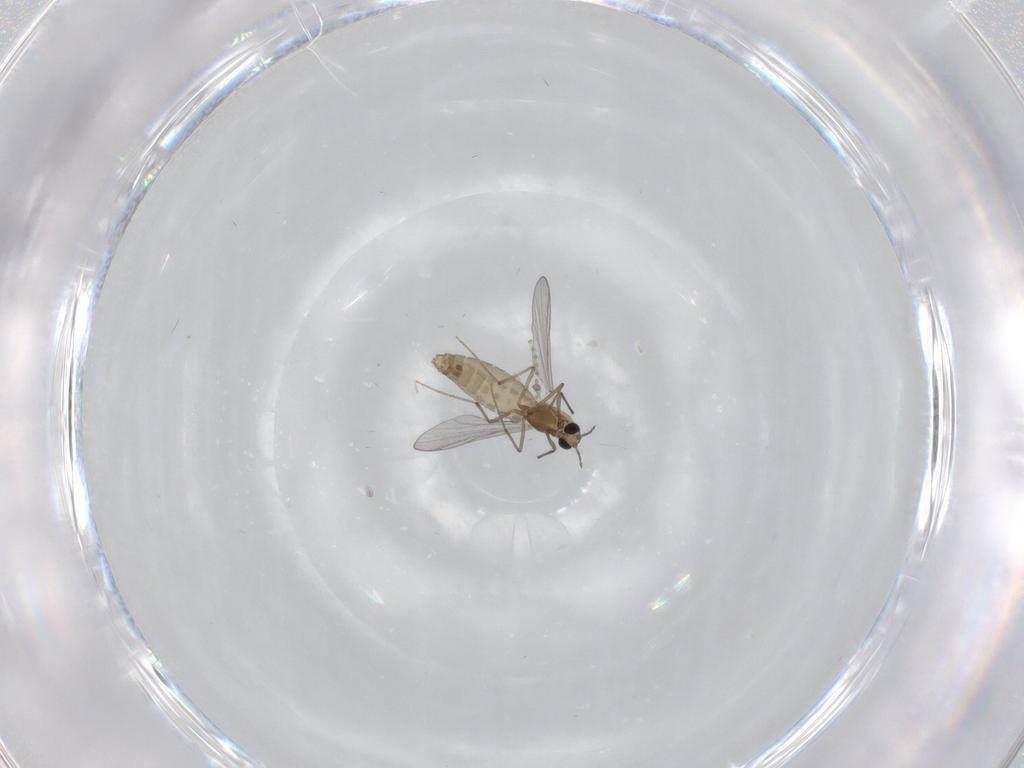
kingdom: Animalia
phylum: Arthropoda
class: Insecta
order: Diptera
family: Chironomidae
